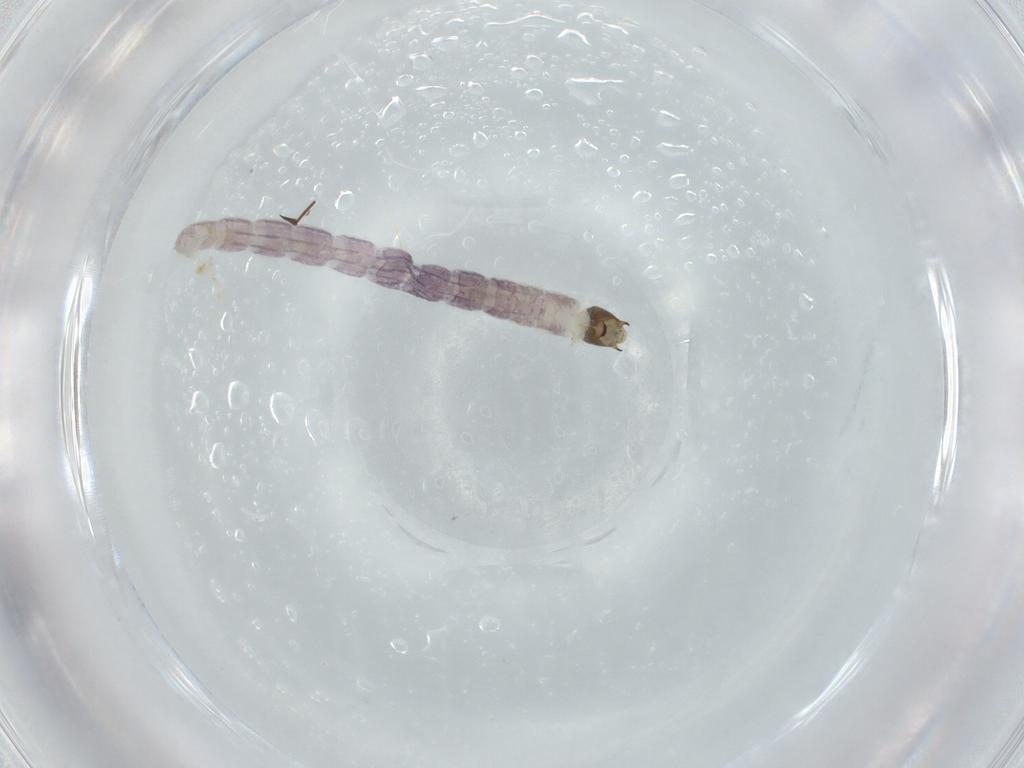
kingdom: Animalia
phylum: Arthropoda
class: Insecta
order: Diptera
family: Chironomidae
